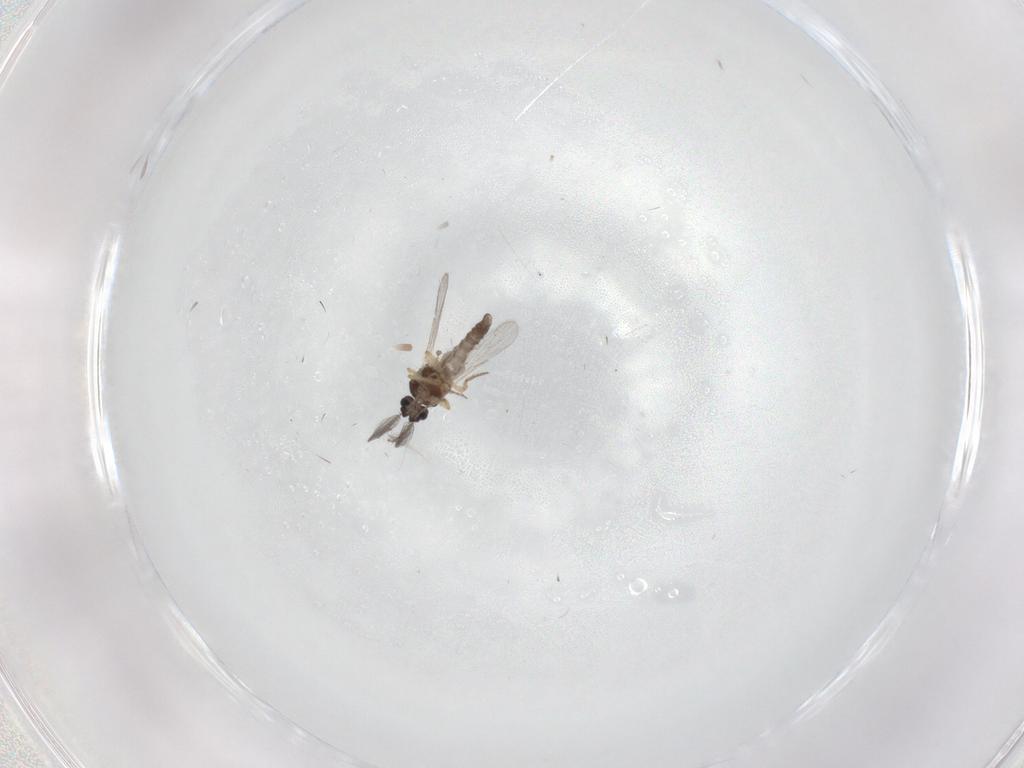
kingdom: Animalia
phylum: Arthropoda
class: Insecta
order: Diptera
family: Ceratopogonidae
